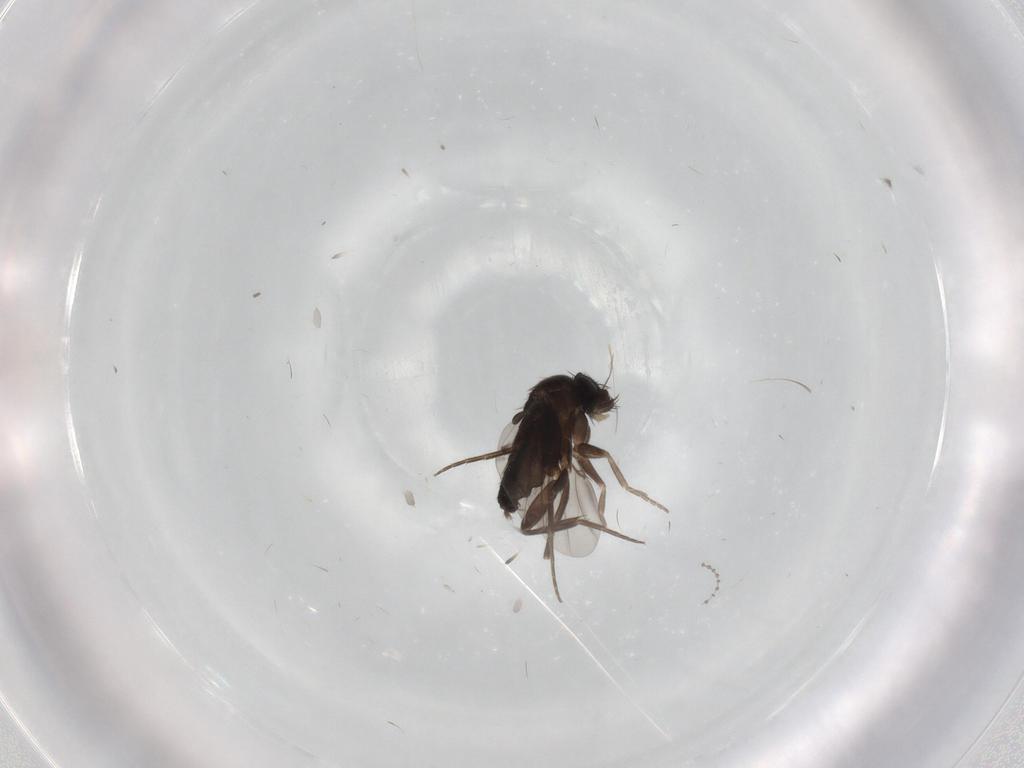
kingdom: Animalia
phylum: Arthropoda
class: Insecta
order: Diptera
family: Phoridae
